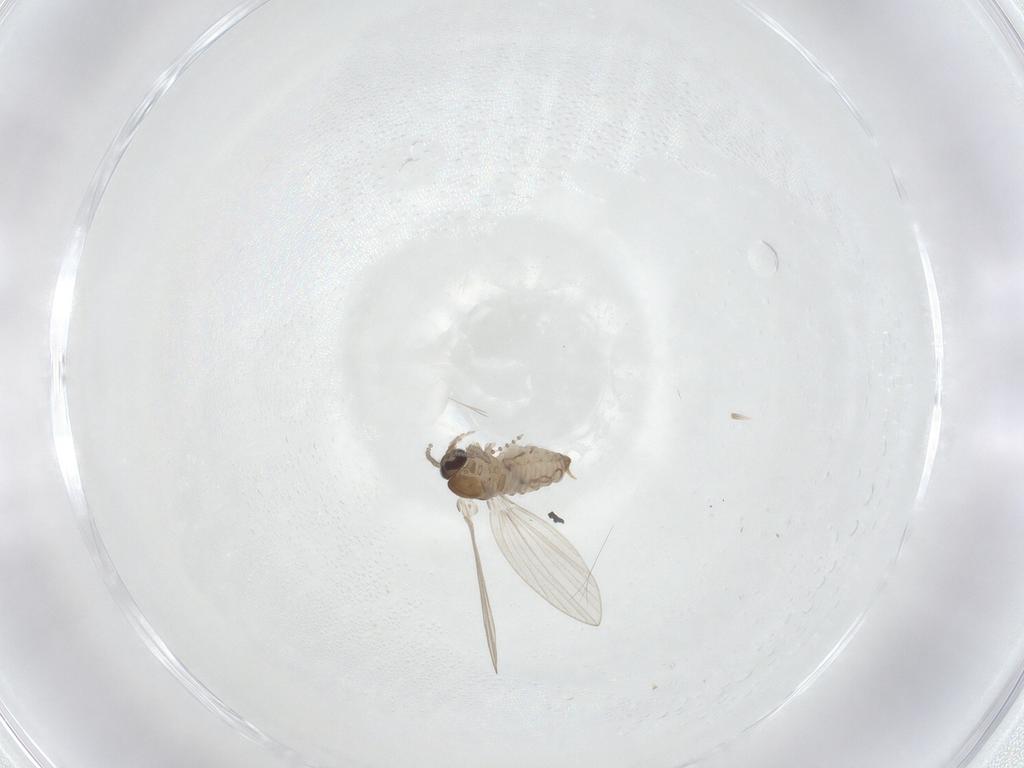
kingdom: Animalia
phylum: Arthropoda
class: Insecta
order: Diptera
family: Psychodidae
